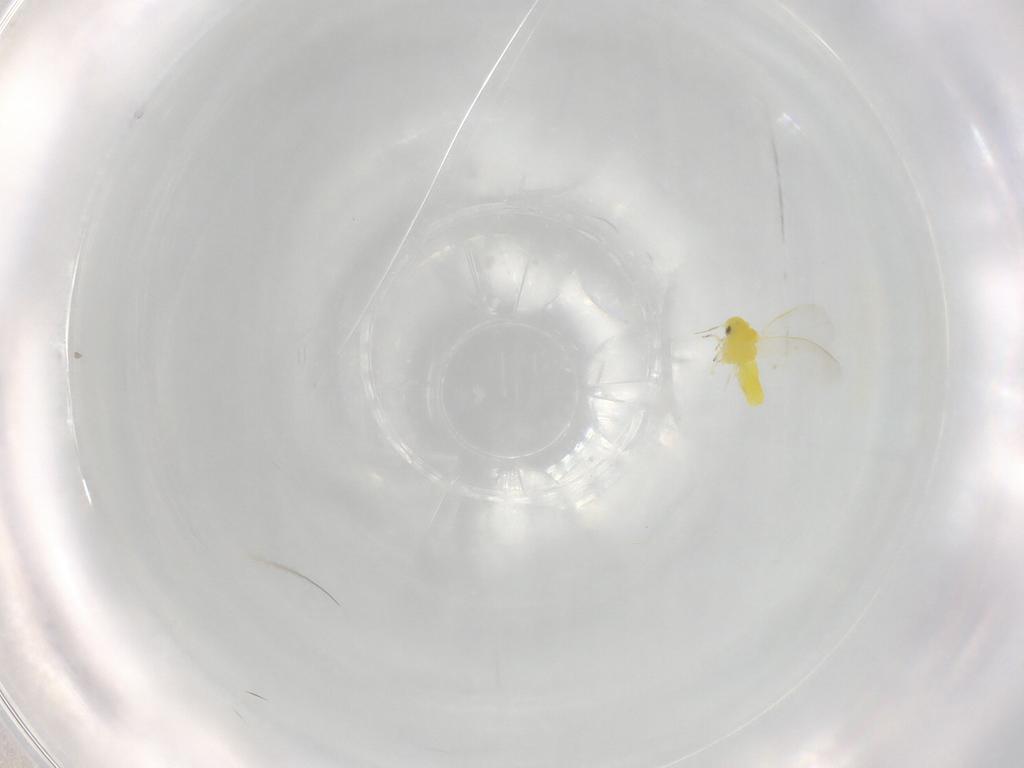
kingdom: Animalia
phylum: Arthropoda
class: Insecta
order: Hemiptera
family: Aleyrodidae
